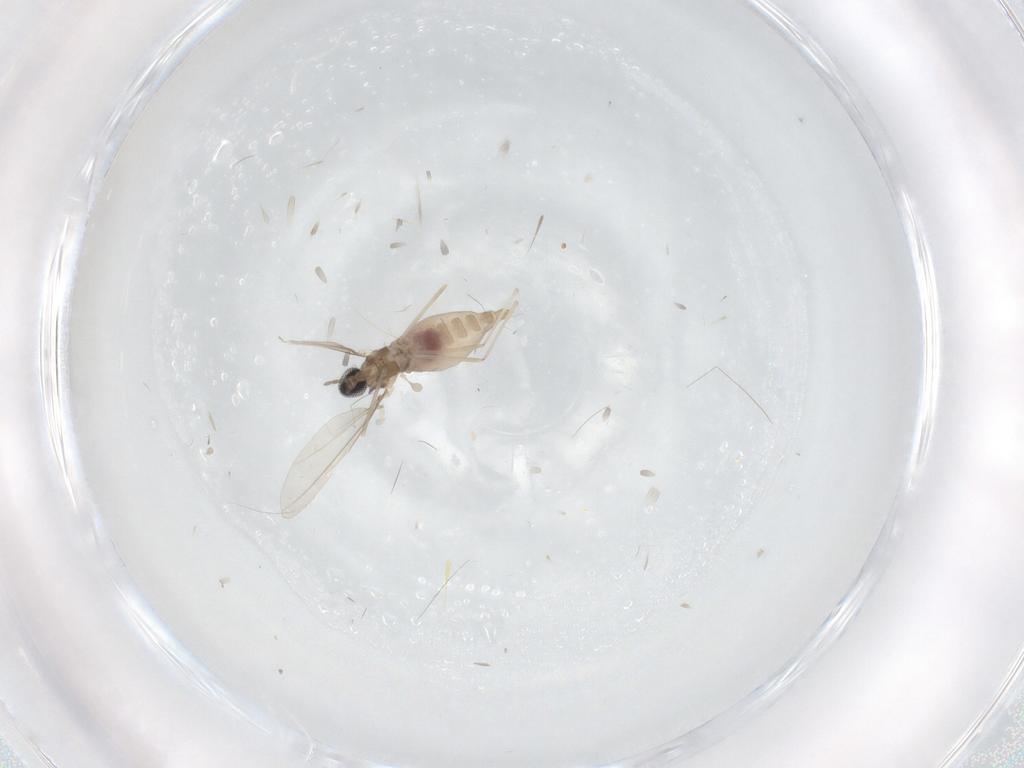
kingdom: Animalia
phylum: Arthropoda
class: Insecta
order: Diptera
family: Cecidomyiidae
